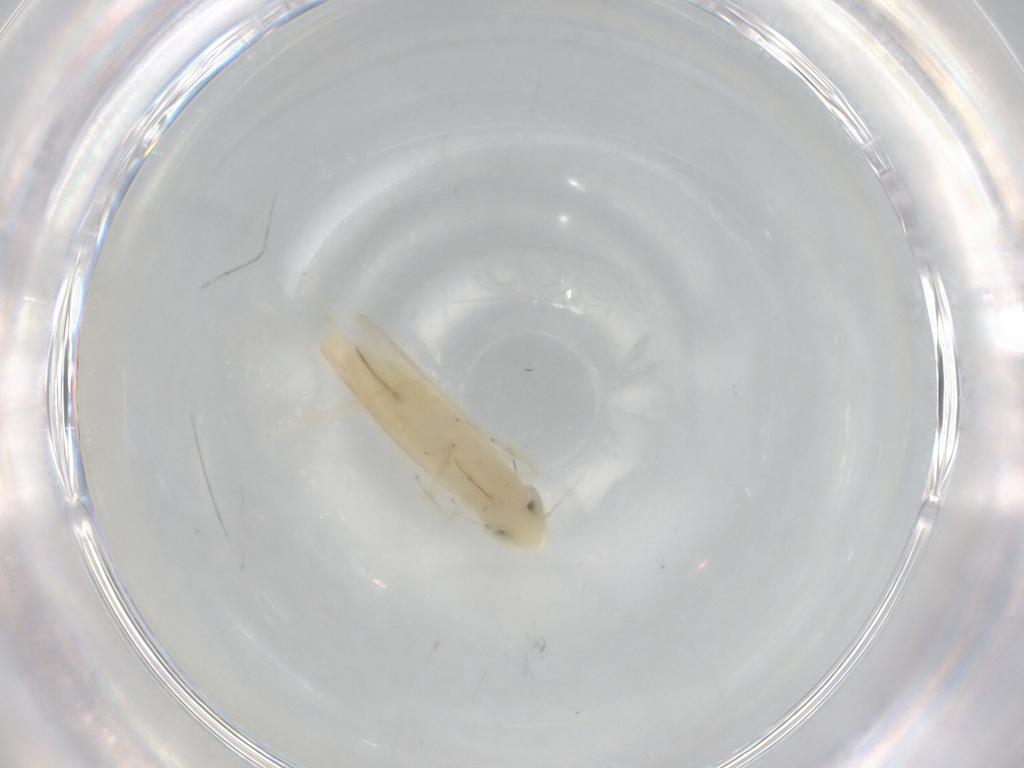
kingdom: Animalia
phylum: Arthropoda
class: Insecta
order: Hemiptera
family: Cicadellidae
